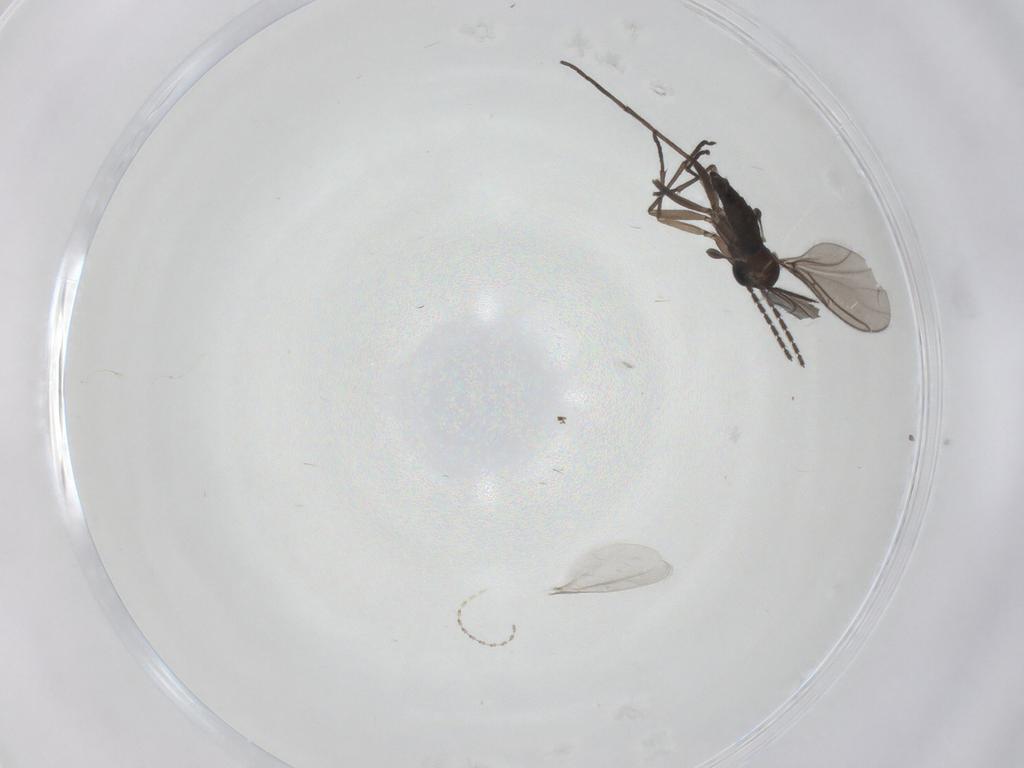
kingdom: Animalia
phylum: Arthropoda
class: Insecta
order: Diptera
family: Sciaridae
